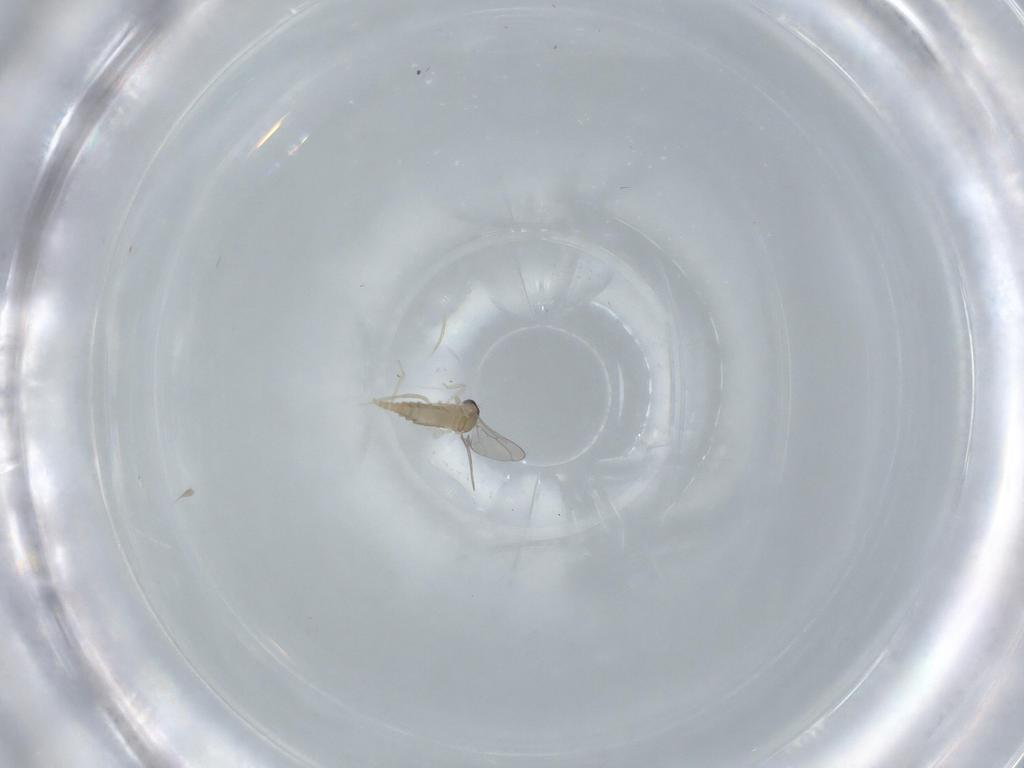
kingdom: Animalia
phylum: Arthropoda
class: Insecta
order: Diptera
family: Cecidomyiidae
